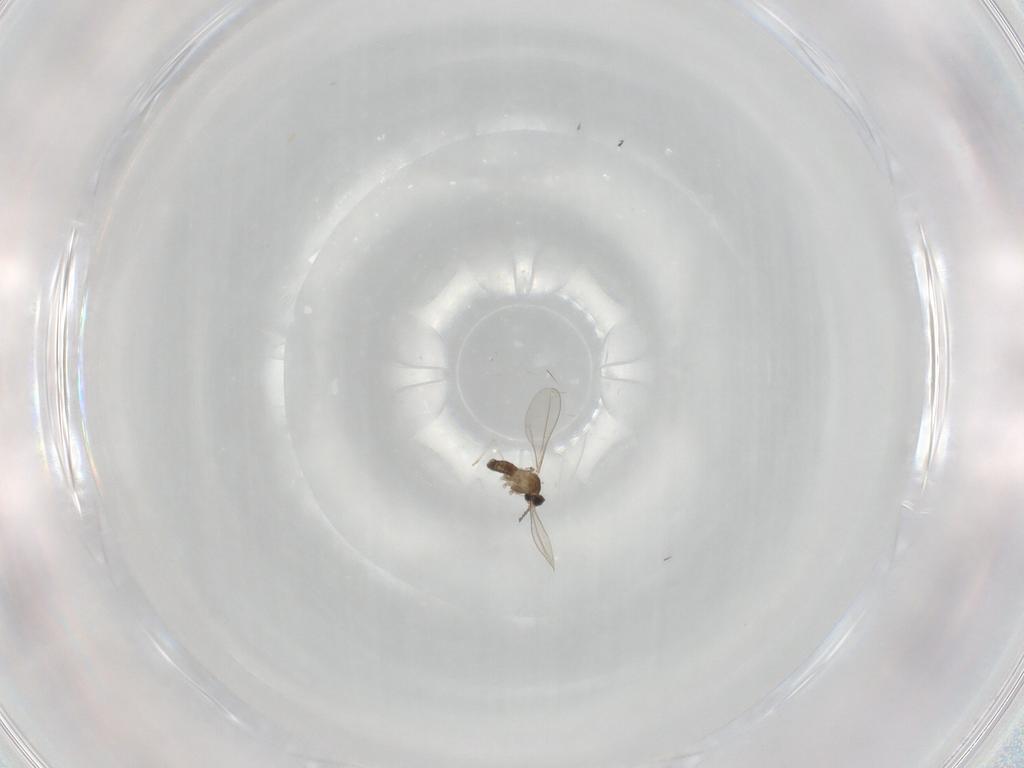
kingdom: Animalia
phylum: Arthropoda
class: Insecta
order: Diptera
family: Cecidomyiidae
